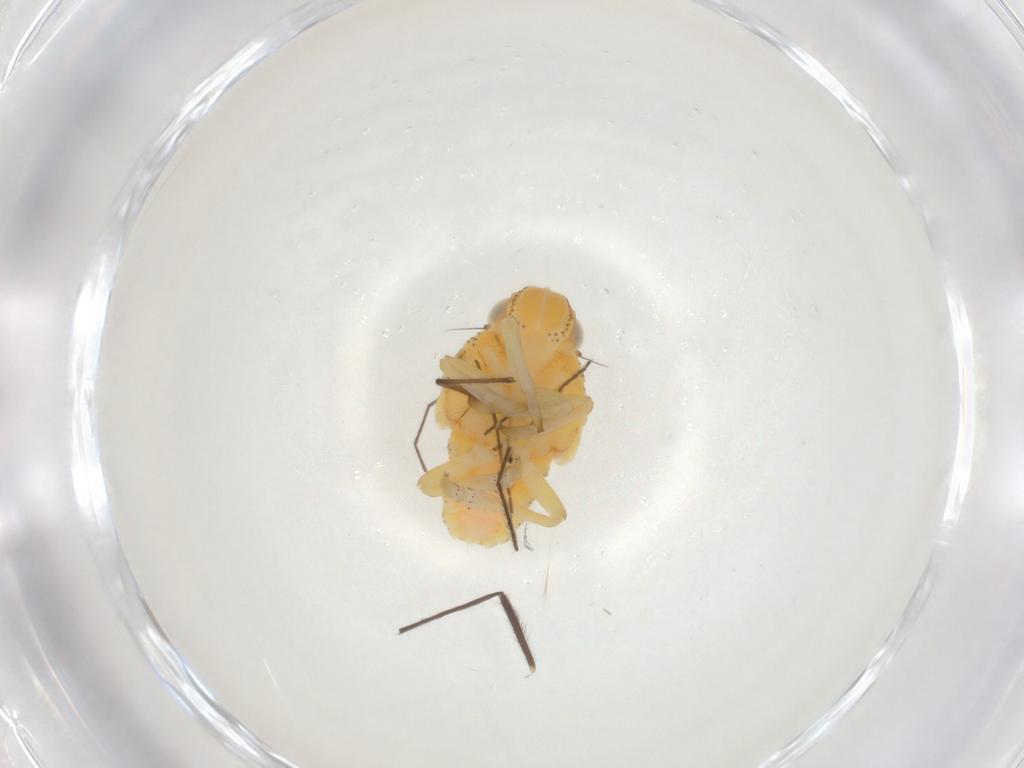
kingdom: Animalia
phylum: Arthropoda
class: Insecta
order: Hemiptera
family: Tropiduchidae
